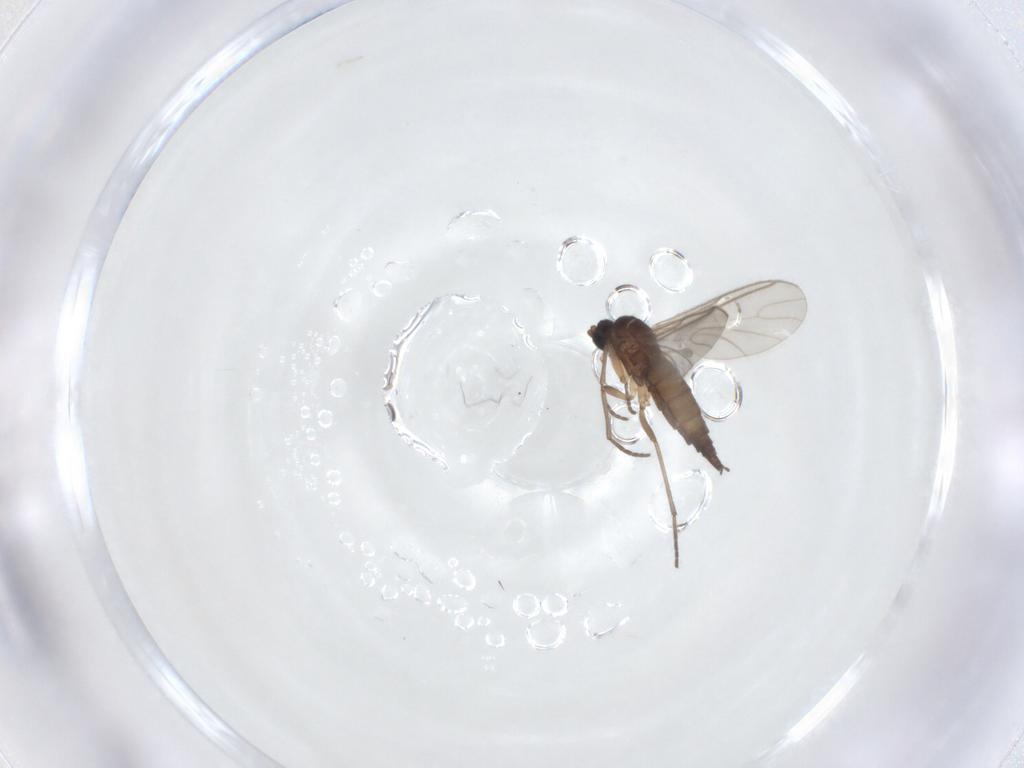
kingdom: Animalia
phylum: Arthropoda
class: Insecta
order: Diptera
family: Sciaridae
